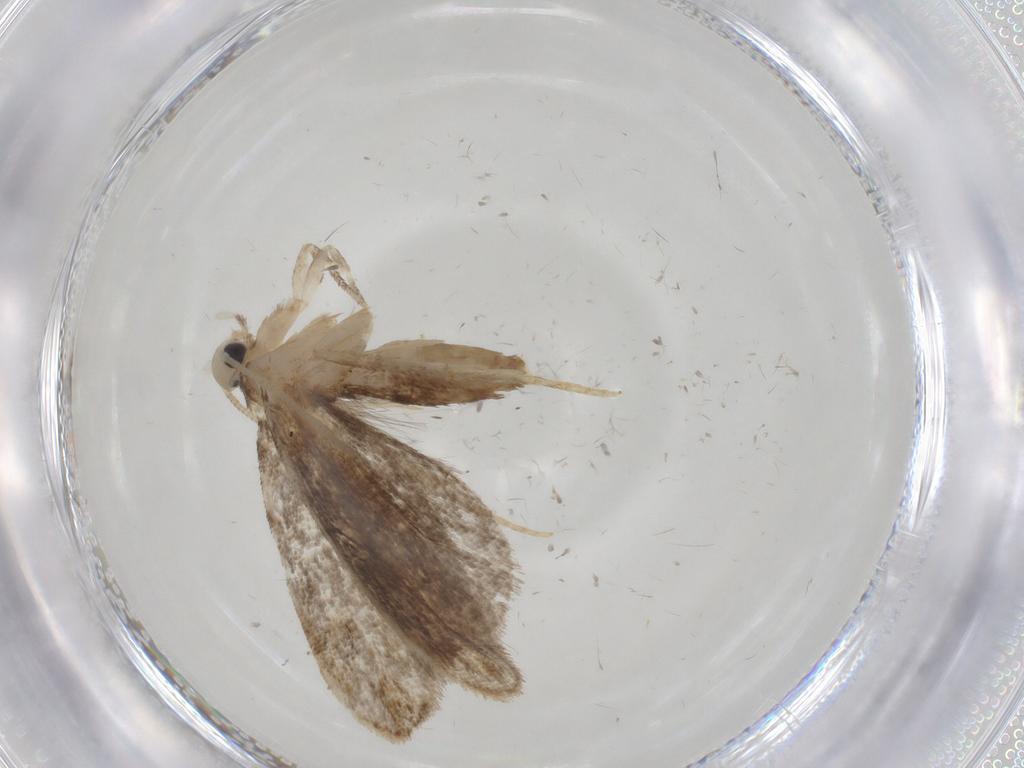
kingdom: Animalia
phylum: Arthropoda
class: Insecta
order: Lepidoptera
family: Dryadaulidae
